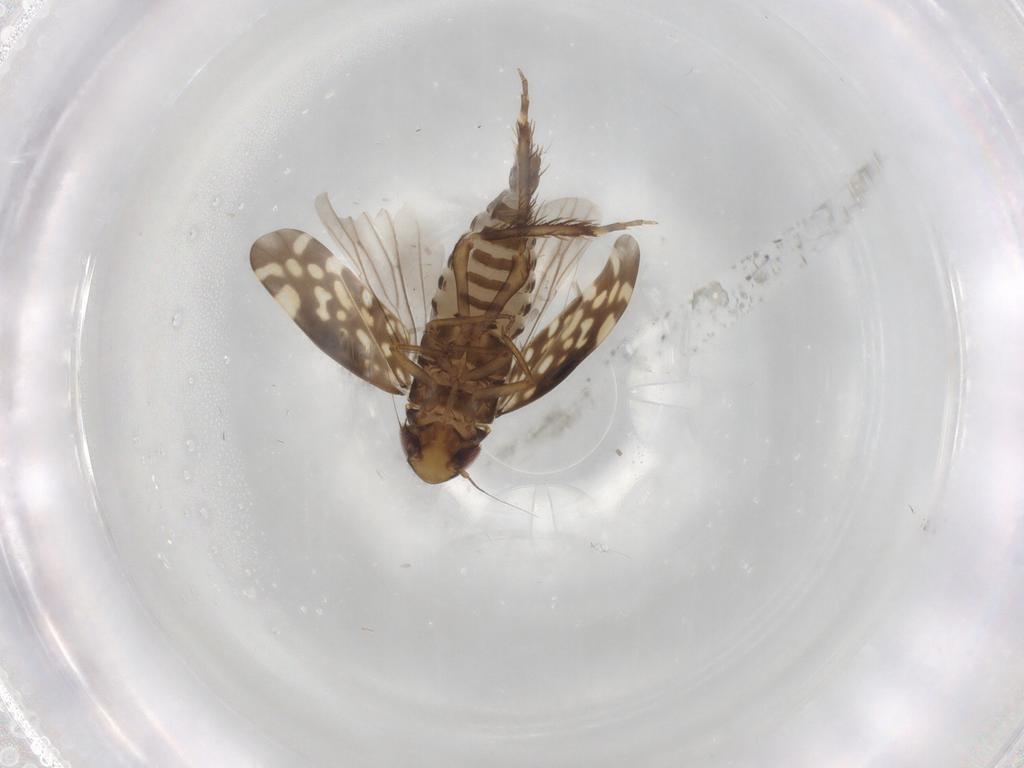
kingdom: Animalia
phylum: Arthropoda
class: Insecta
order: Hemiptera
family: Cicadellidae
